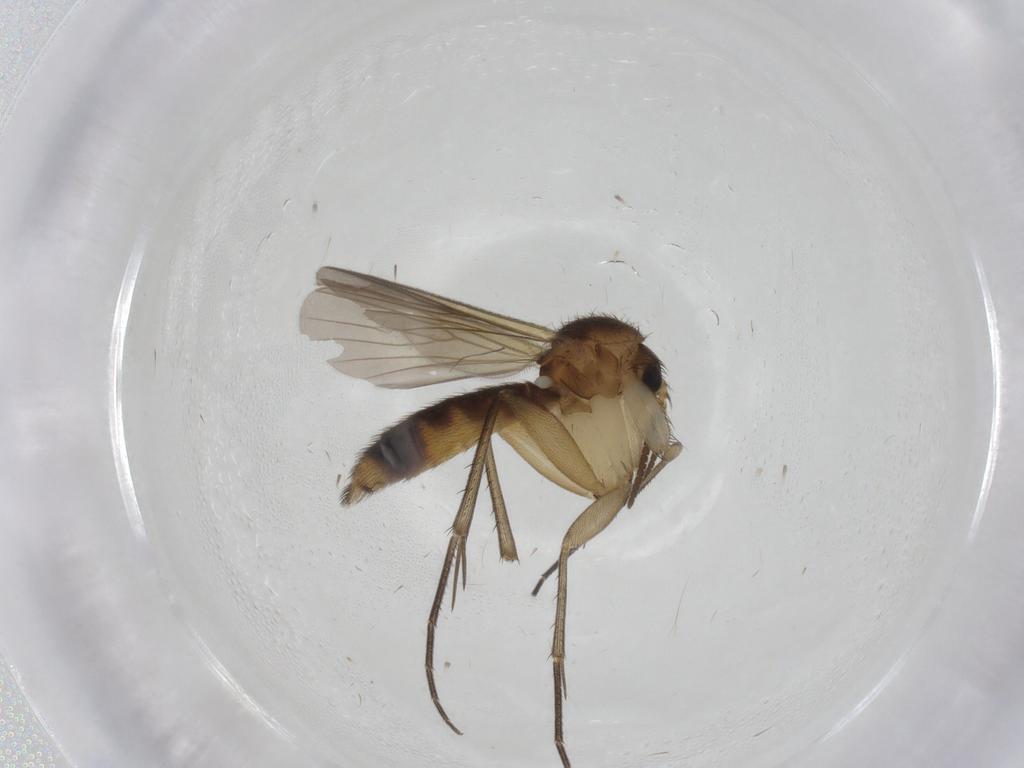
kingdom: Animalia
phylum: Arthropoda
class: Insecta
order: Diptera
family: Mycetophilidae
